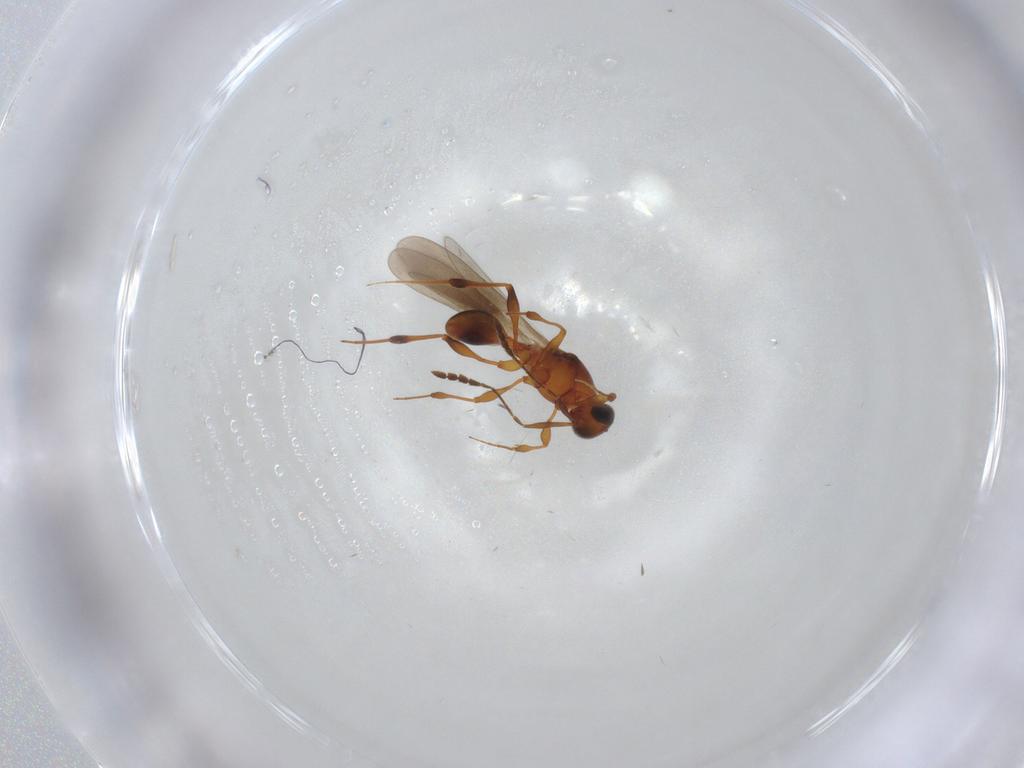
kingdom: Animalia
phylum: Arthropoda
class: Insecta
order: Hymenoptera
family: Platygastridae
